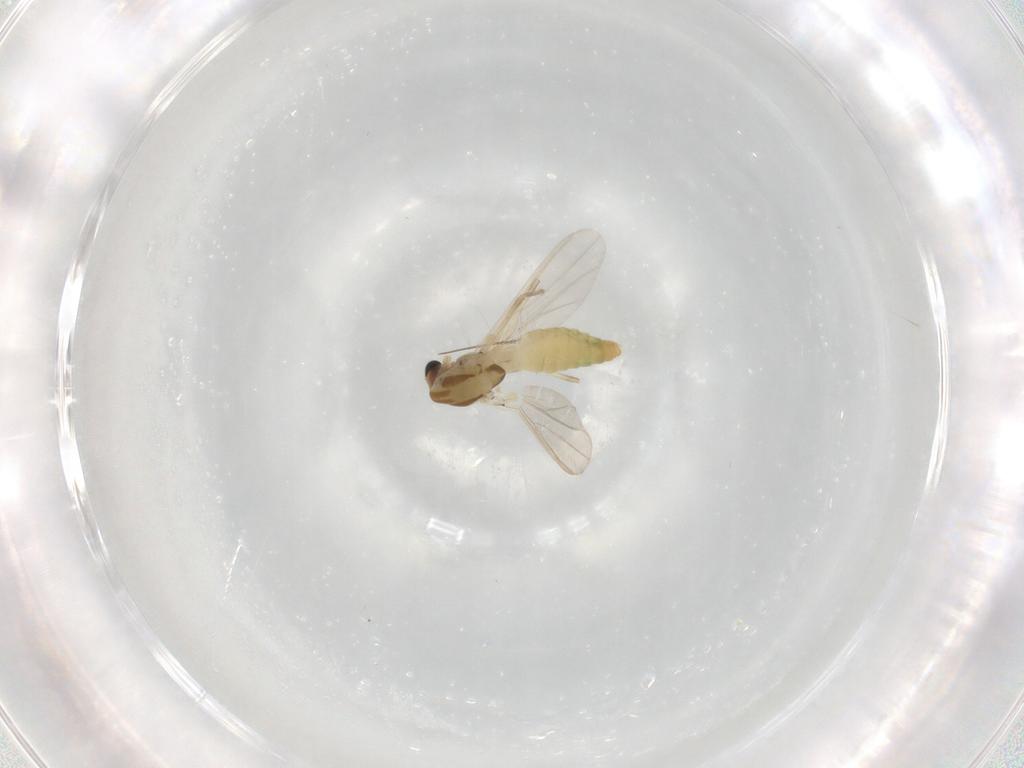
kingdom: Animalia
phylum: Arthropoda
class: Insecta
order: Diptera
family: Chironomidae
